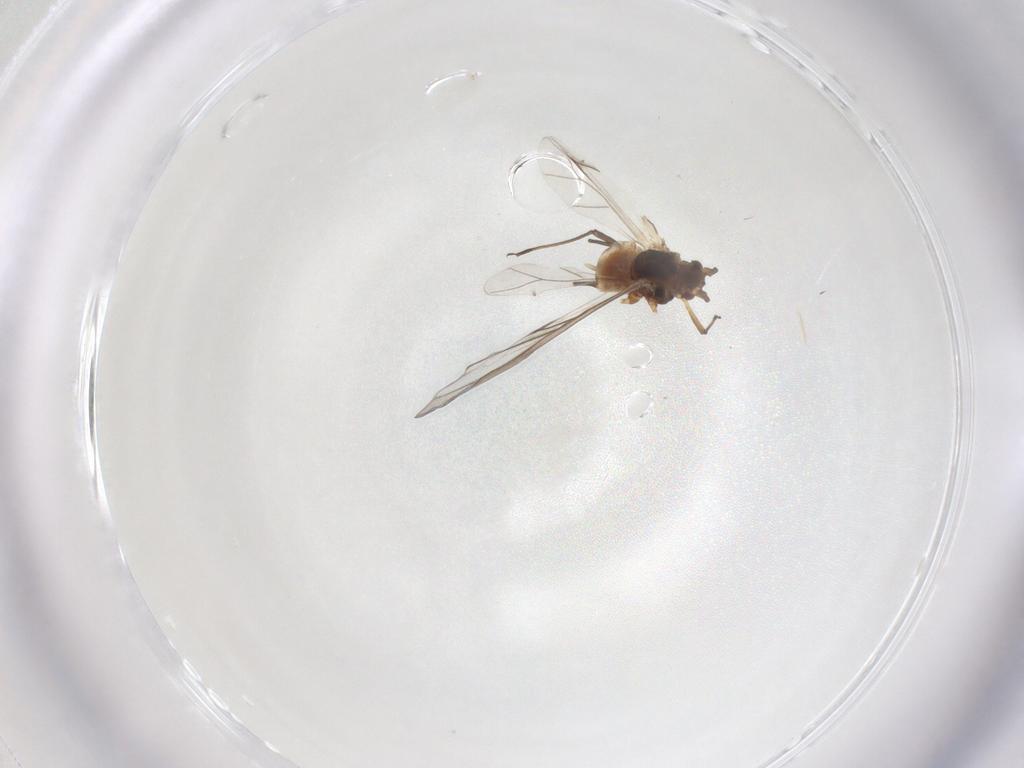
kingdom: Animalia
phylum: Arthropoda
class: Insecta
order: Hemiptera
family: Aphididae
